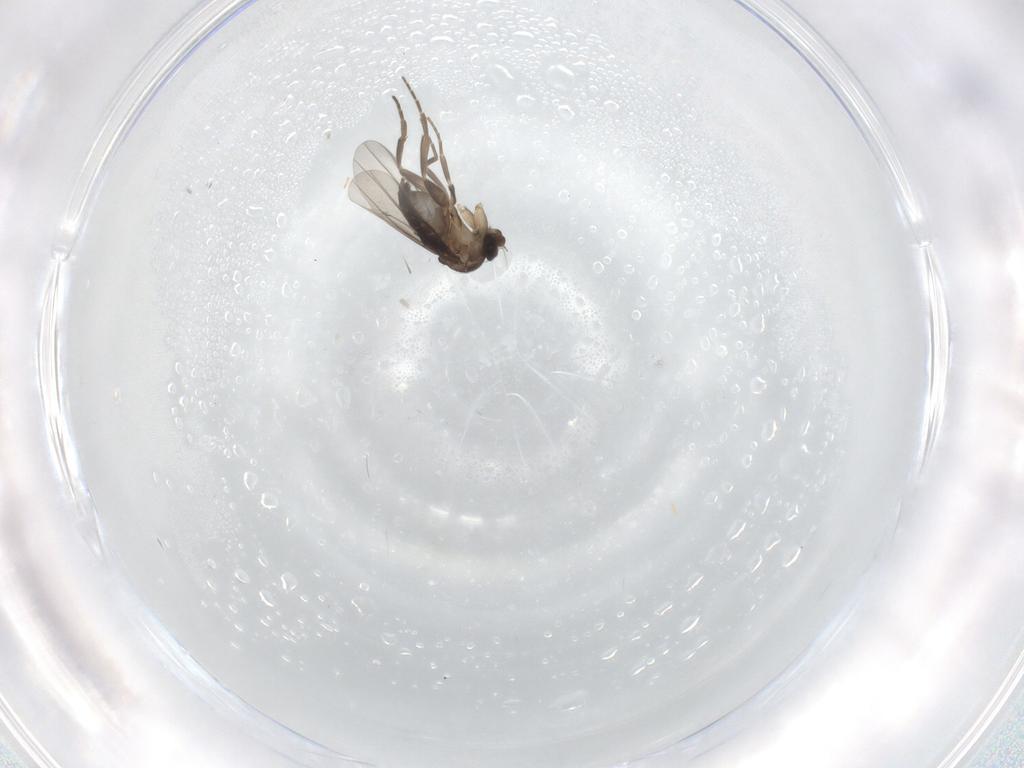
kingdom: Animalia
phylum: Arthropoda
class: Insecta
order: Diptera
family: Phoridae
